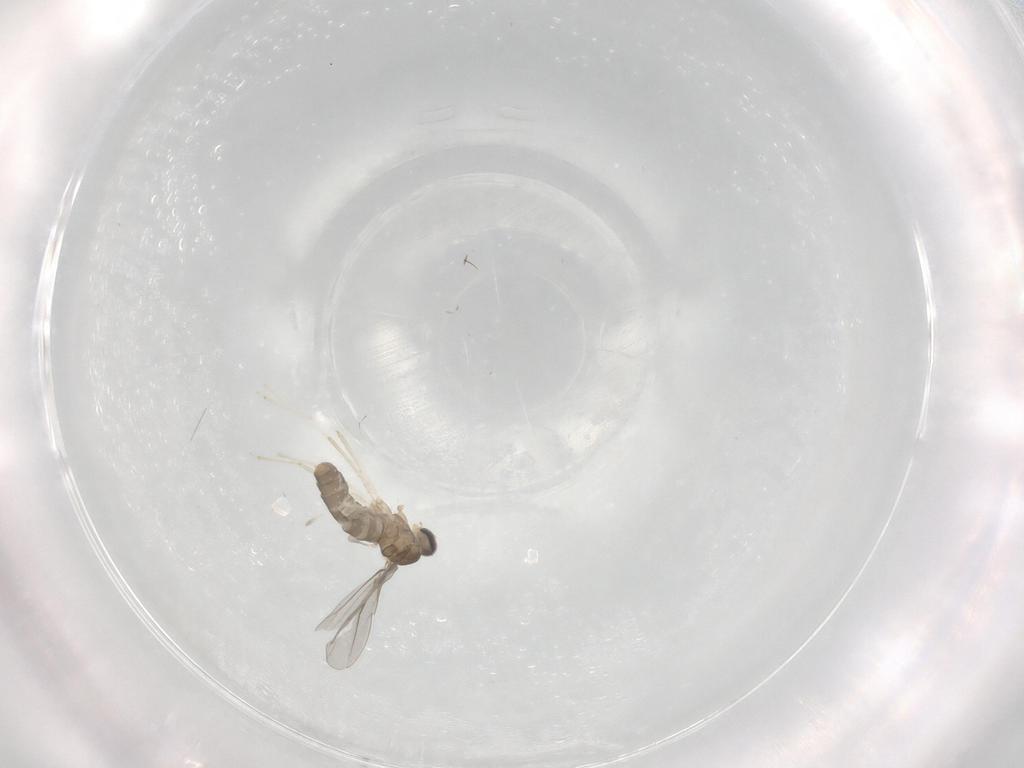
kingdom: Animalia
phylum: Arthropoda
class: Insecta
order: Diptera
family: Cecidomyiidae
